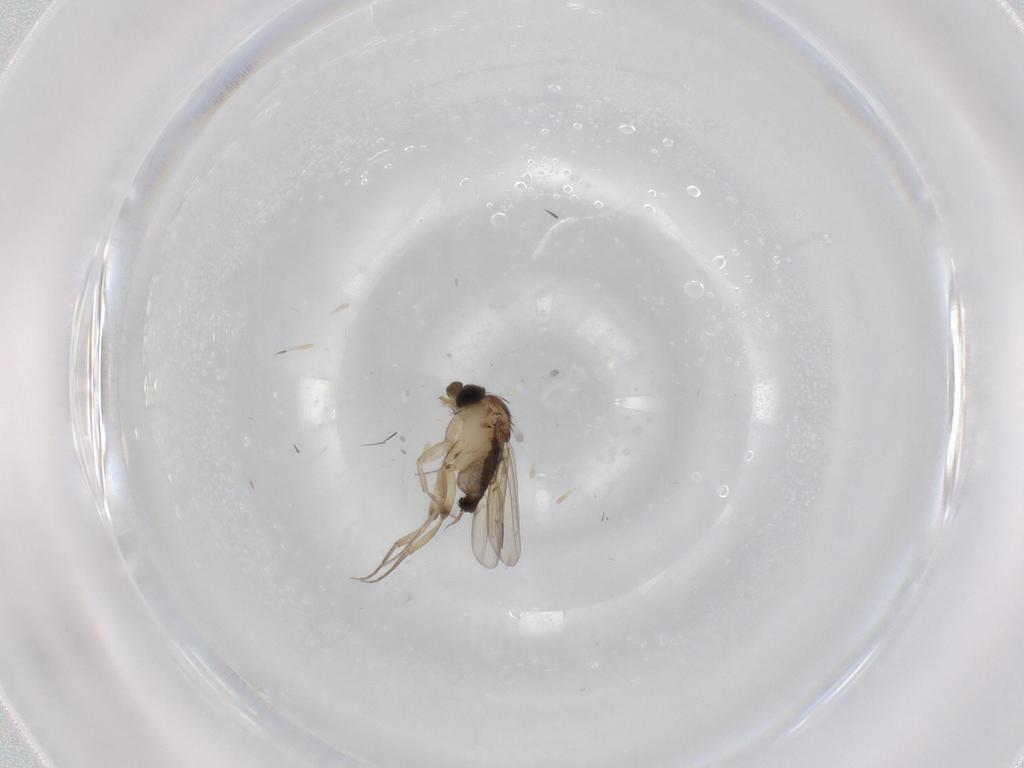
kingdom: Animalia
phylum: Arthropoda
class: Insecta
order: Diptera
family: Phoridae
